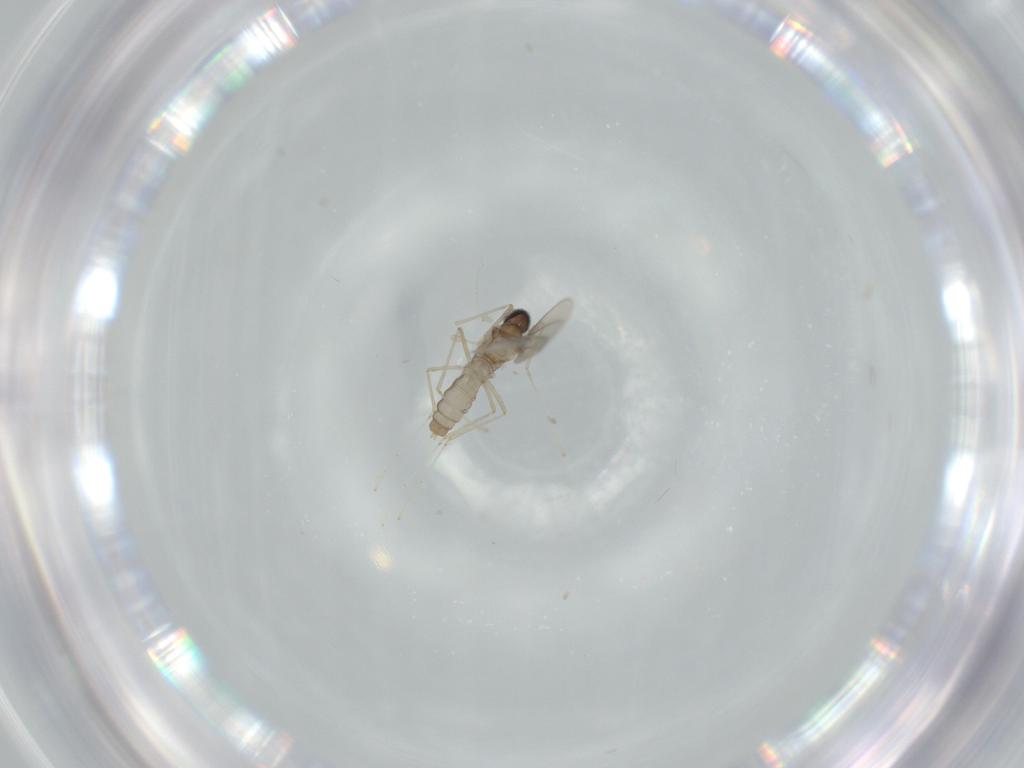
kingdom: Animalia
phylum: Arthropoda
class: Insecta
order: Diptera
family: Cecidomyiidae
